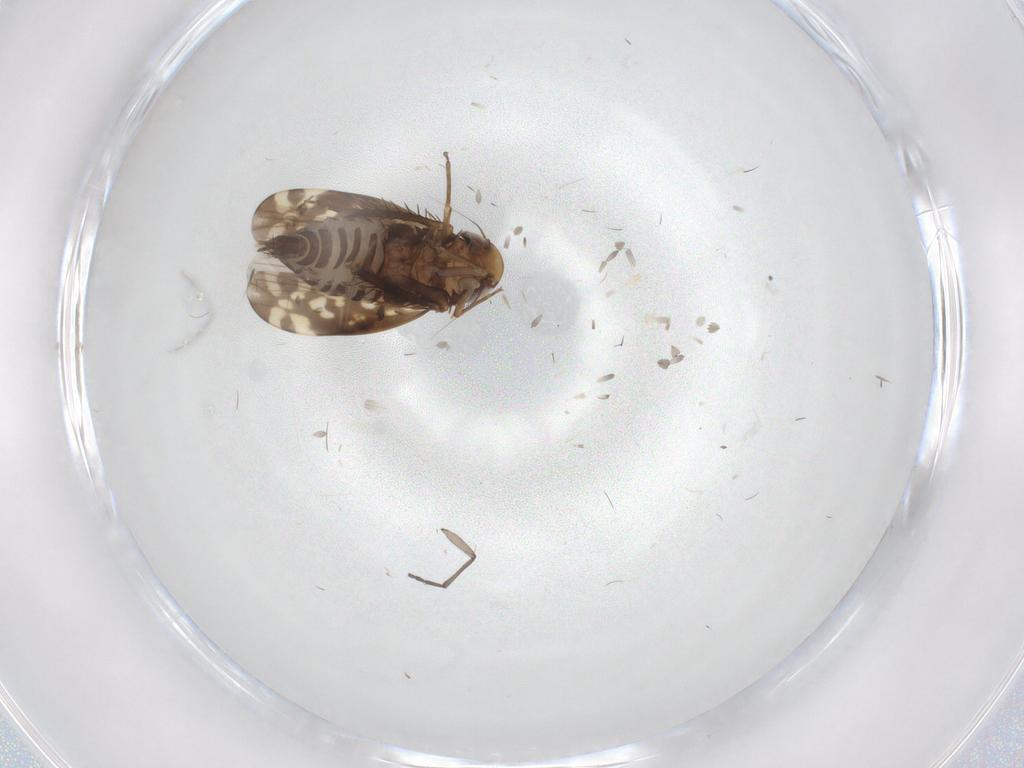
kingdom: Animalia
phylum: Arthropoda
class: Insecta
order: Hemiptera
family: Cicadellidae
